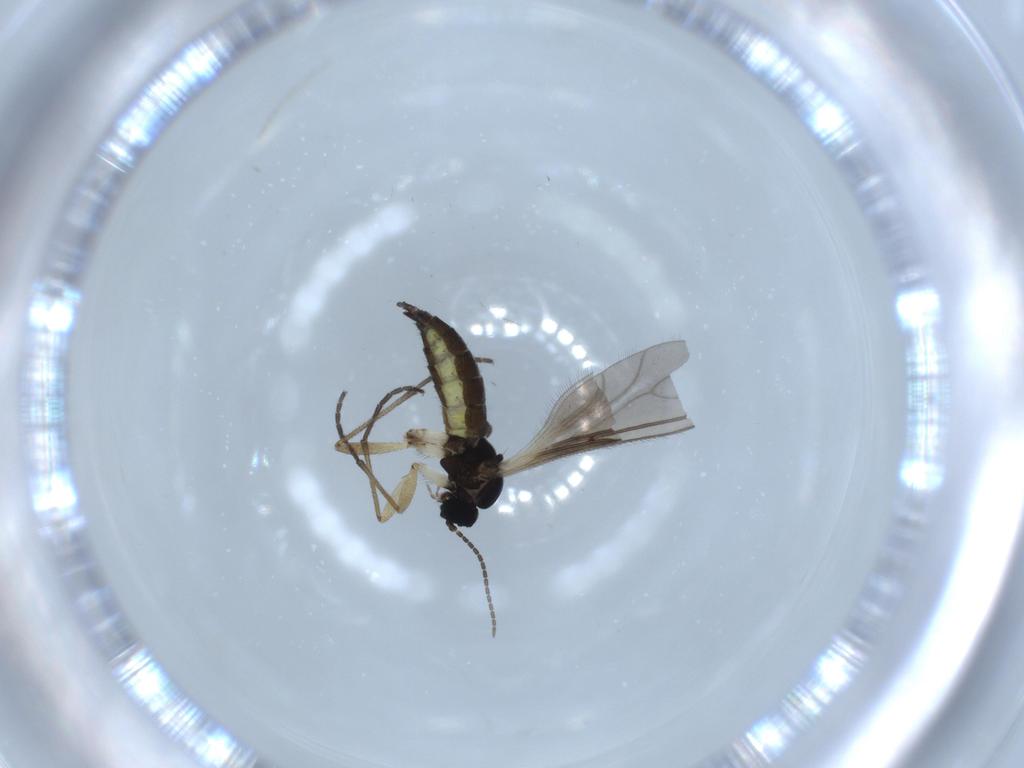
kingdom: Animalia
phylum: Arthropoda
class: Insecta
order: Diptera
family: Sciaridae
